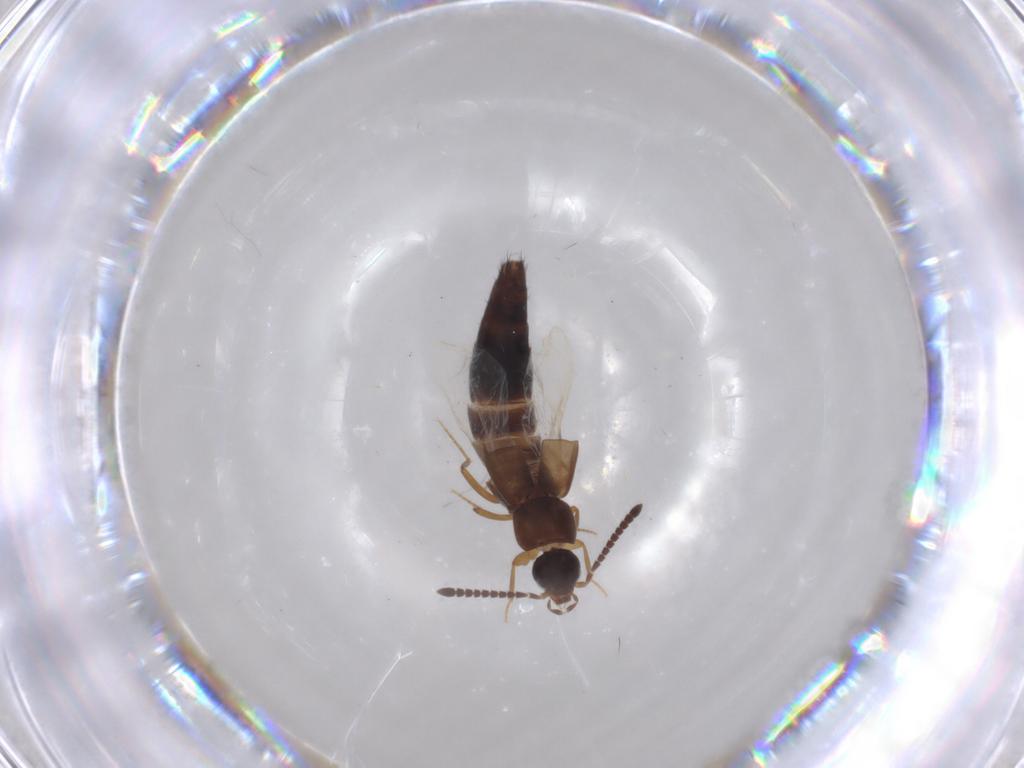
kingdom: Animalia
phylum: Arthropoda
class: Insecta
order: Coleoptera
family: Staphylinidae
